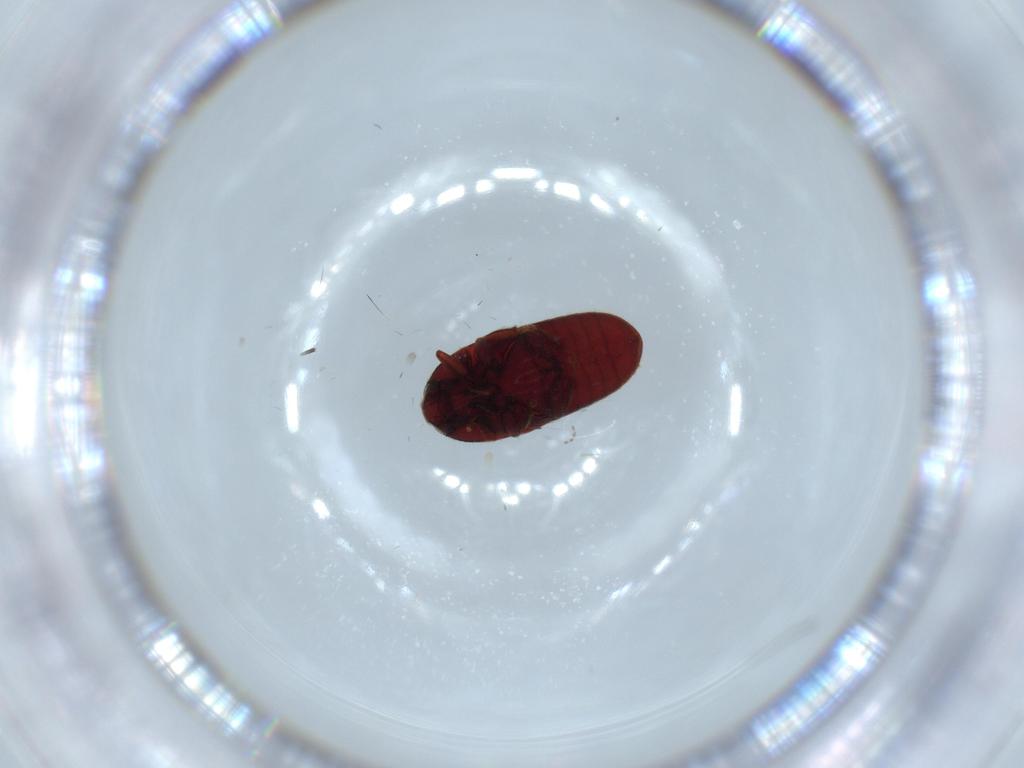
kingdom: Animalia
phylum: Arthropoda
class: Insecta
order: Coleoptera
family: Throscidae
